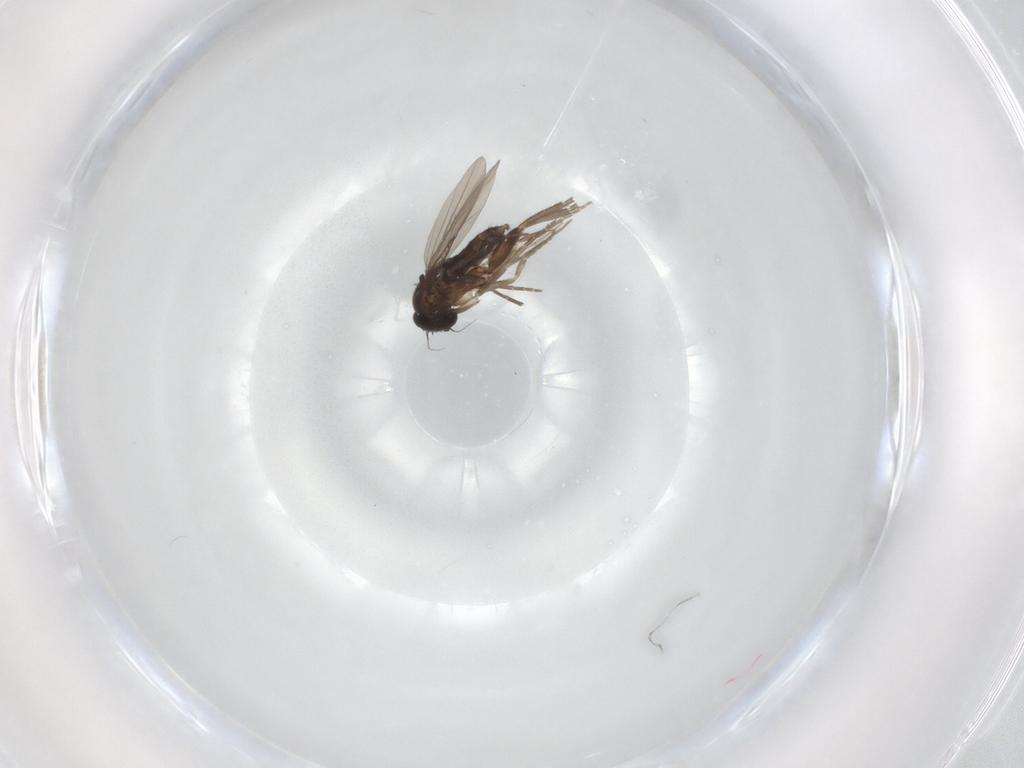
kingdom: Animalia
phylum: Arthropoda
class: Insecta
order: Diptera
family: Phoridae
